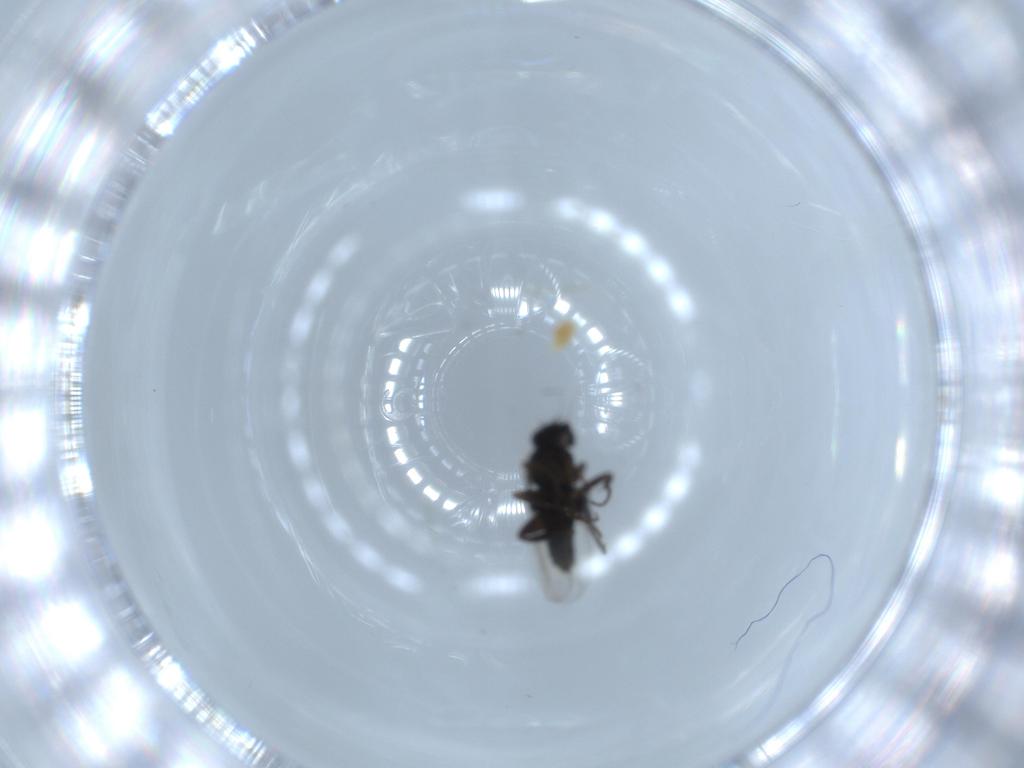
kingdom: Animalia
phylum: Arthropoda
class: Insecta
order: Diptera
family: Phoridae
